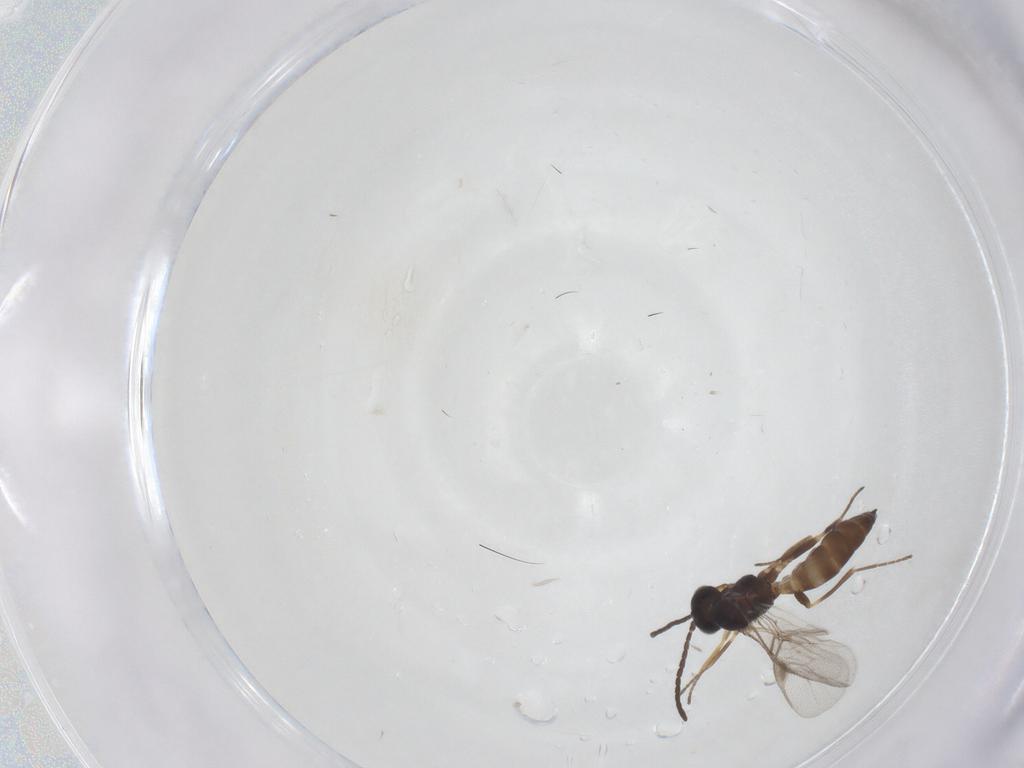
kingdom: Animalia
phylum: Arthropoda
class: Insecta
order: Hymenoptera
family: Braconidae
